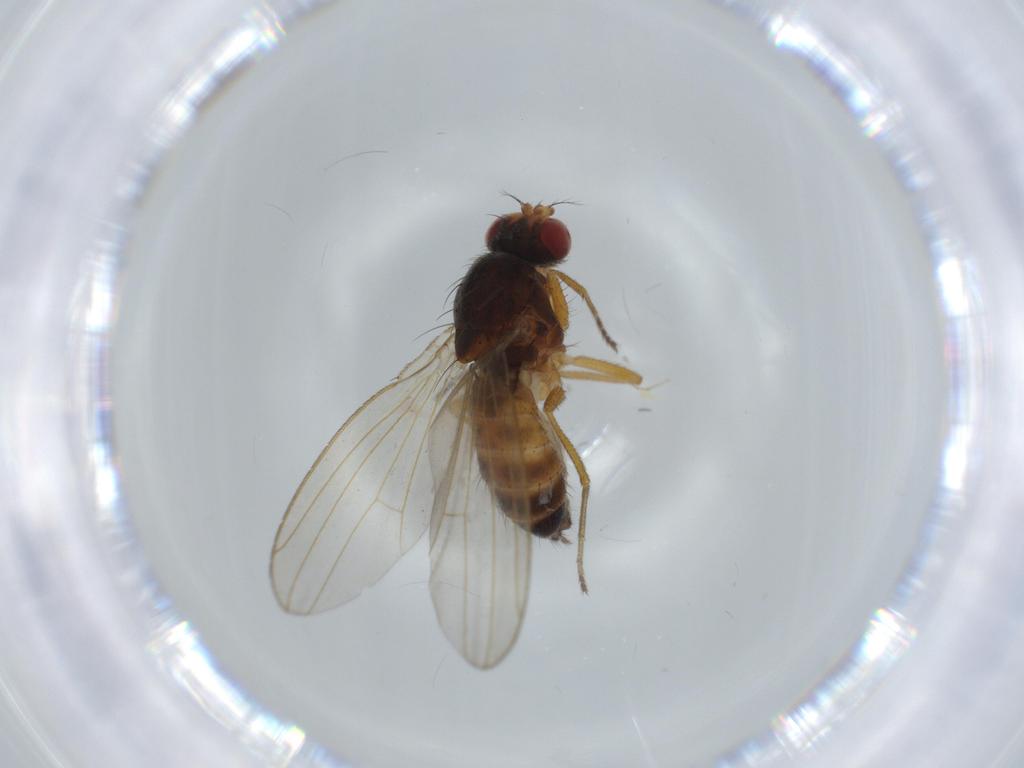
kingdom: Animalia
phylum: Arthropoda
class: Insecta
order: Diptera
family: Drosophilidae
